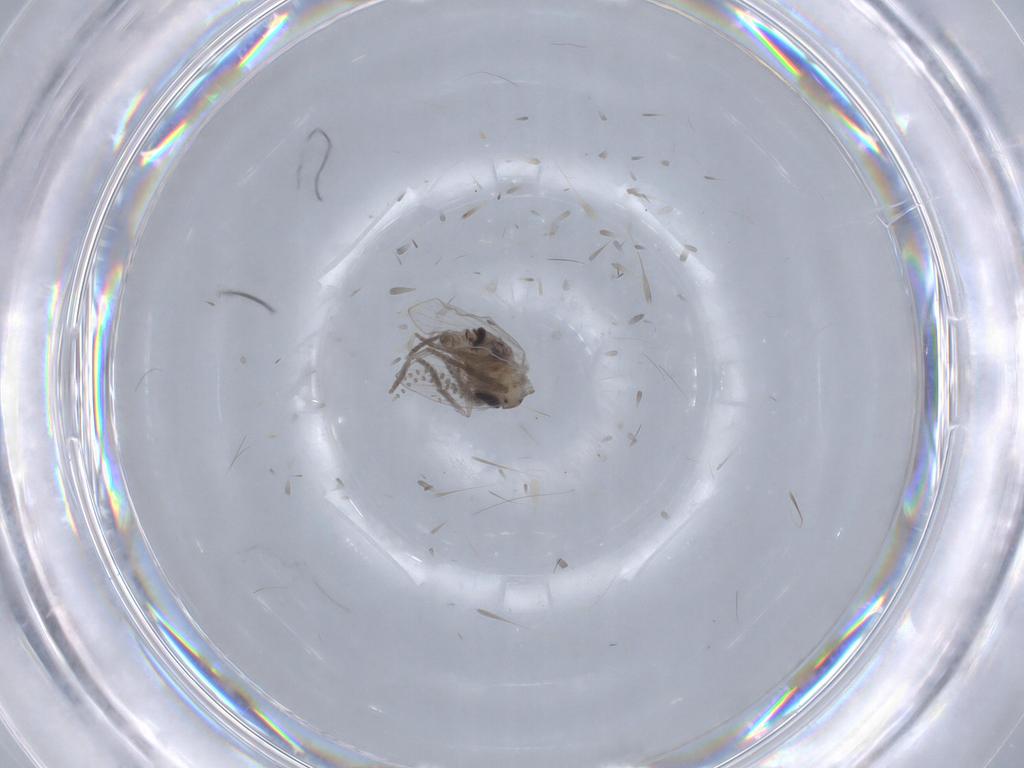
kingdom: Animalia
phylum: Arthropoda
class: Insecta
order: Diptera
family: Psychodidae
